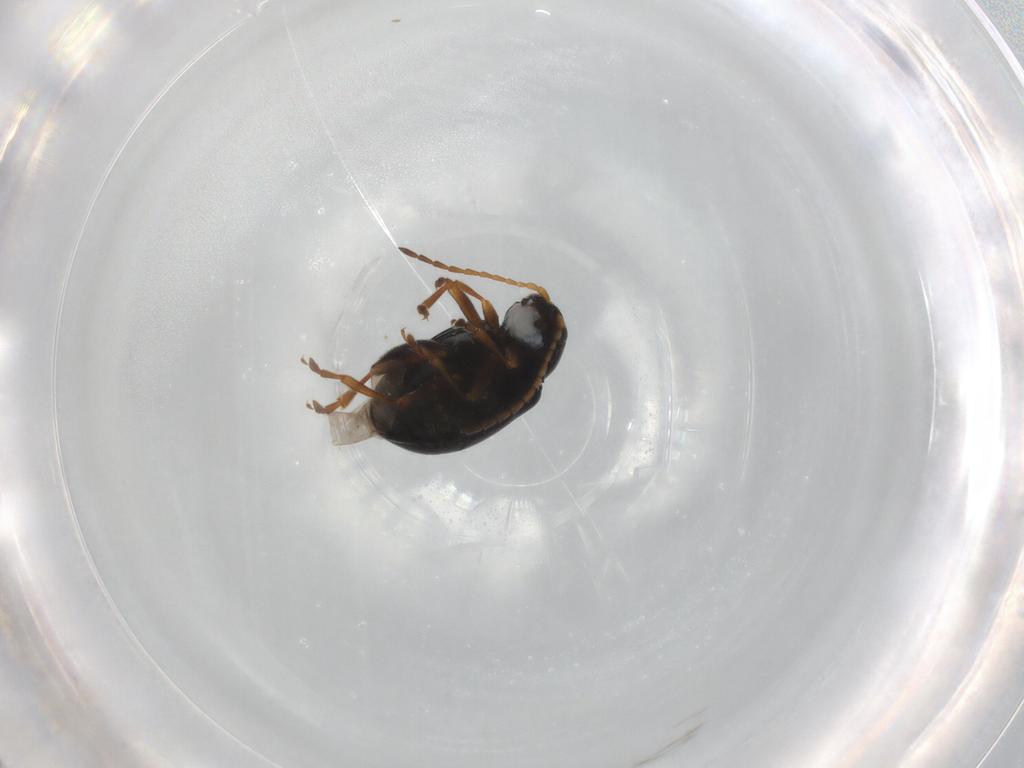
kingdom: Animalia
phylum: Arthropoda
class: Insecta
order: Coleoptera
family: Chrysomelidae
